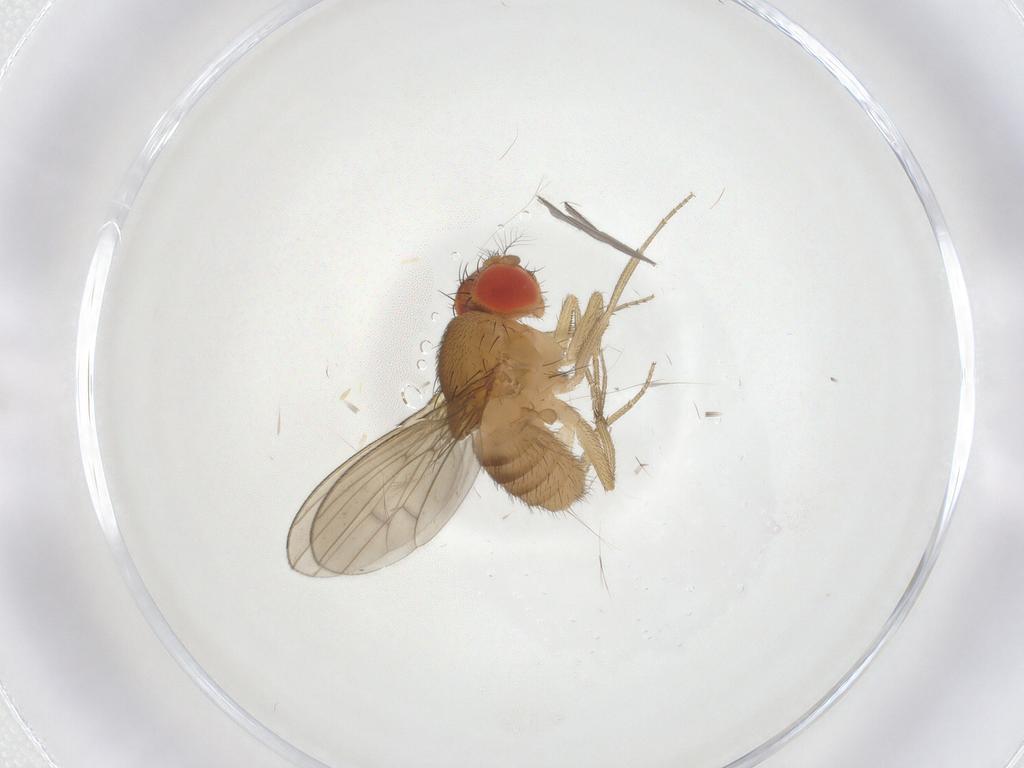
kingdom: Animalia
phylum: Arthropoda
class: Insecta
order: Diptera
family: Drosophilidae
